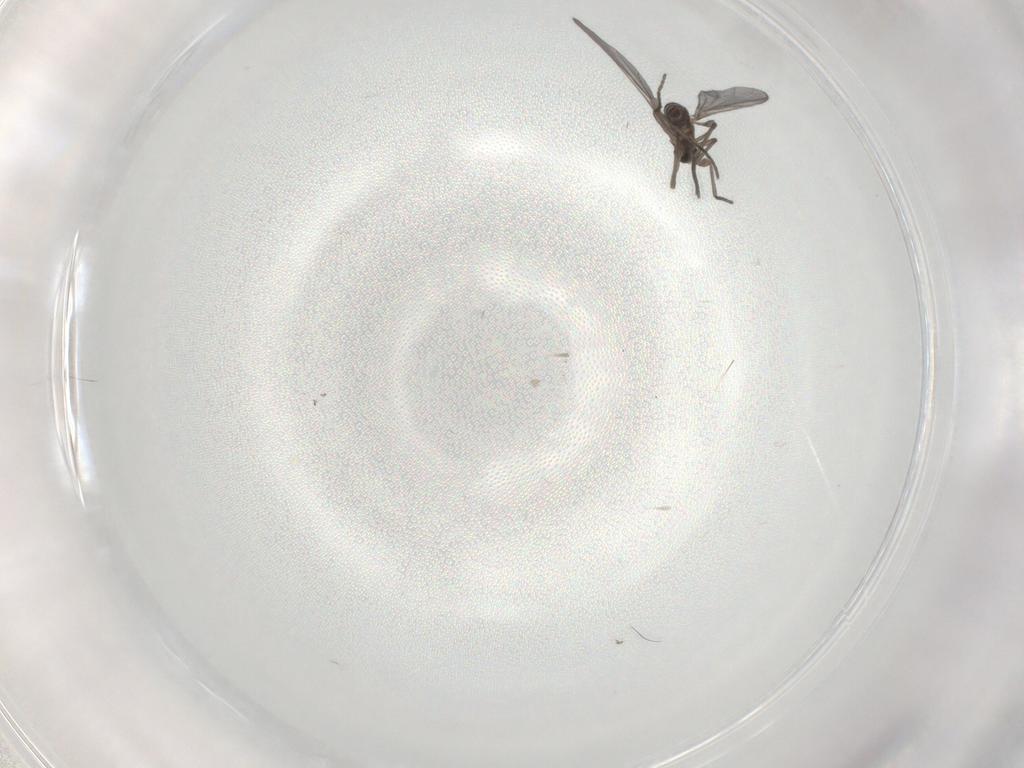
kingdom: Animalia
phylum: Arthropoda
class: Insecta
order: Diptera
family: Sciaridae
